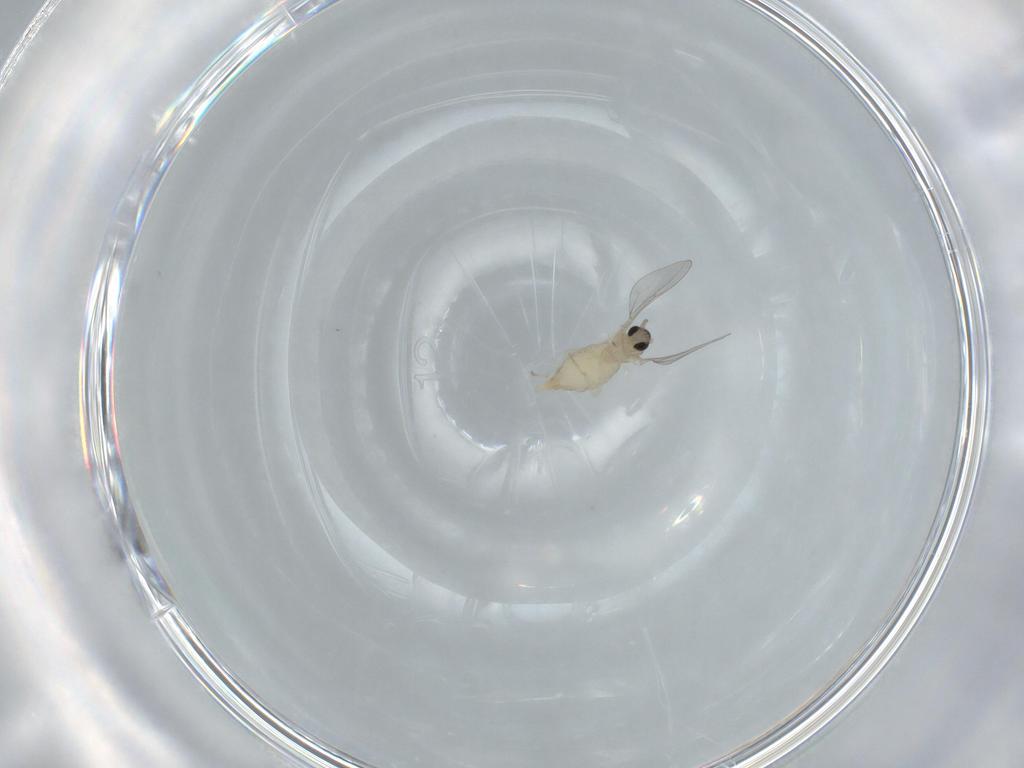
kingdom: Animalia
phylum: Arthropoda
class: Insecta
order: Diptera
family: Cecidomyiidae
